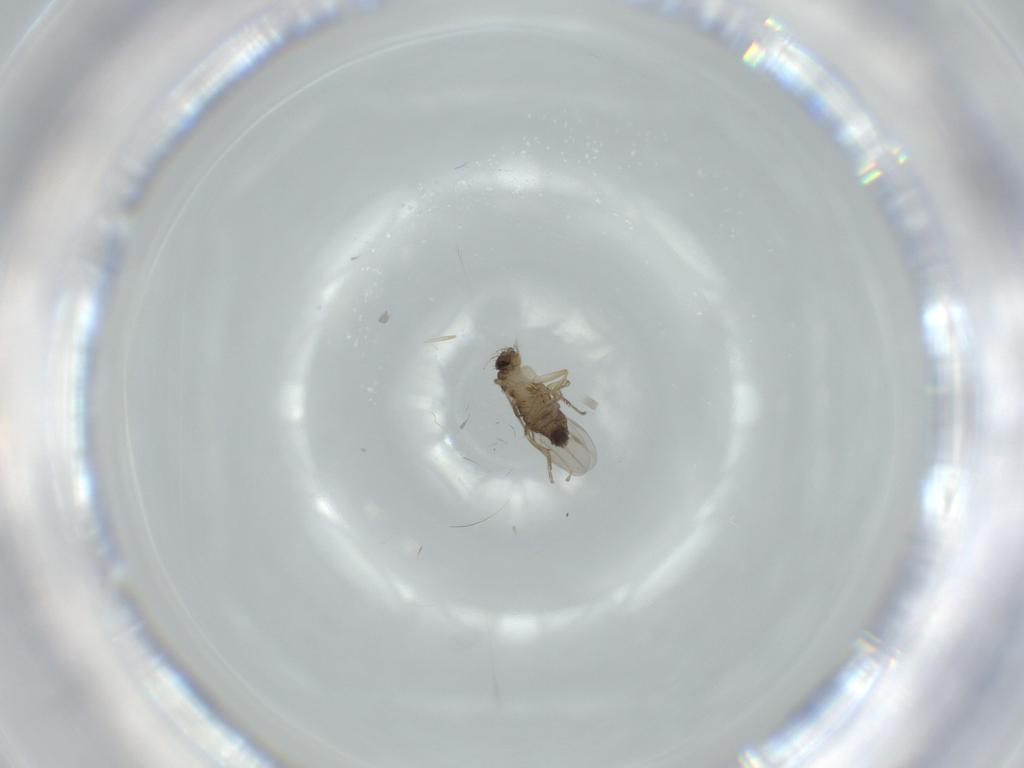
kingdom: Animalia
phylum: Arthropoda
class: Insecta
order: Diptera
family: Phoridae
